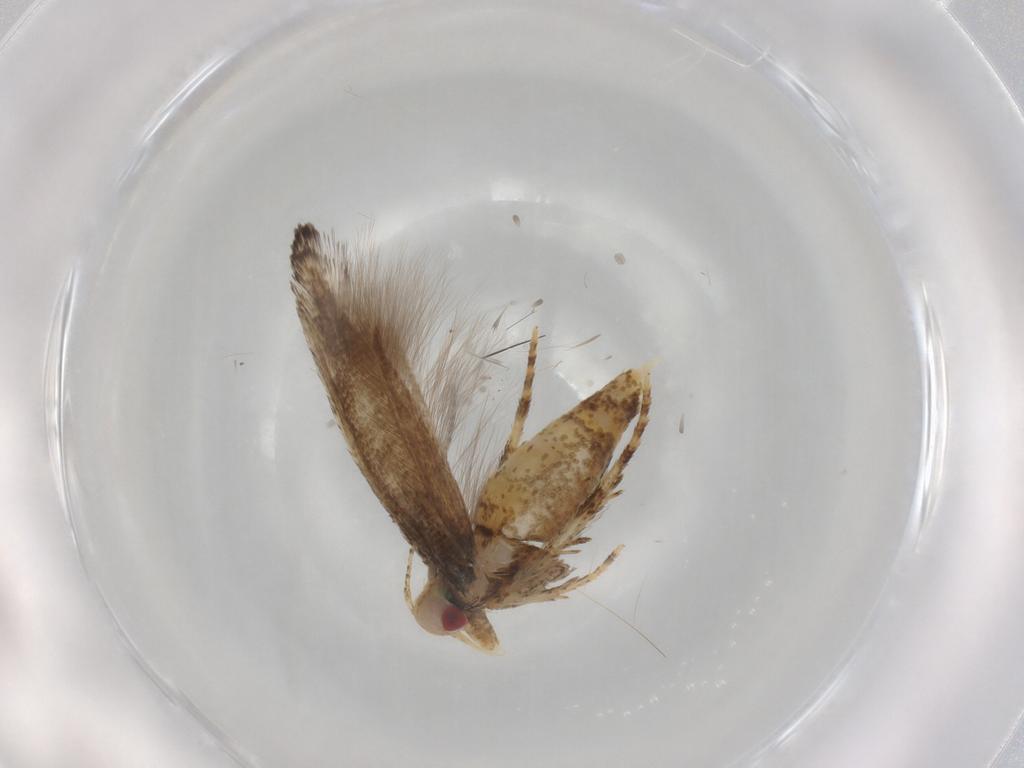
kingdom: Animalia
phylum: Arthropoda
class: Insecta
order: Lepidoptera
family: Cosmopterigidae
